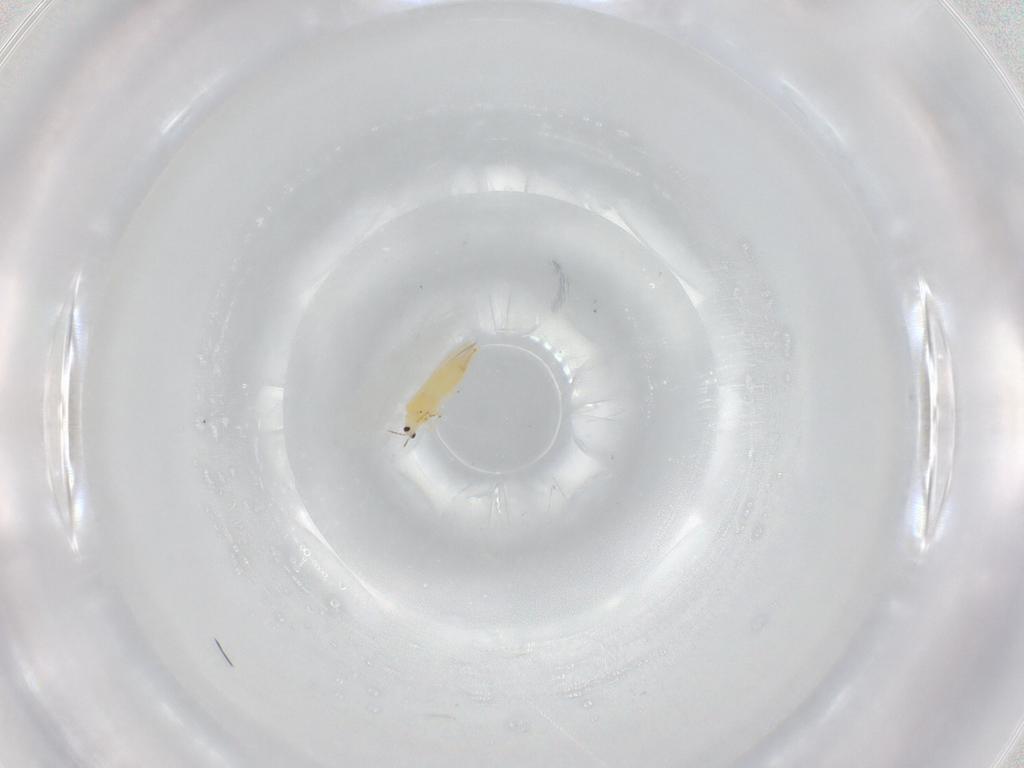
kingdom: Animalia
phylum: Arthropoda
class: Insecta
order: Thysanoptera
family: Thripidae
